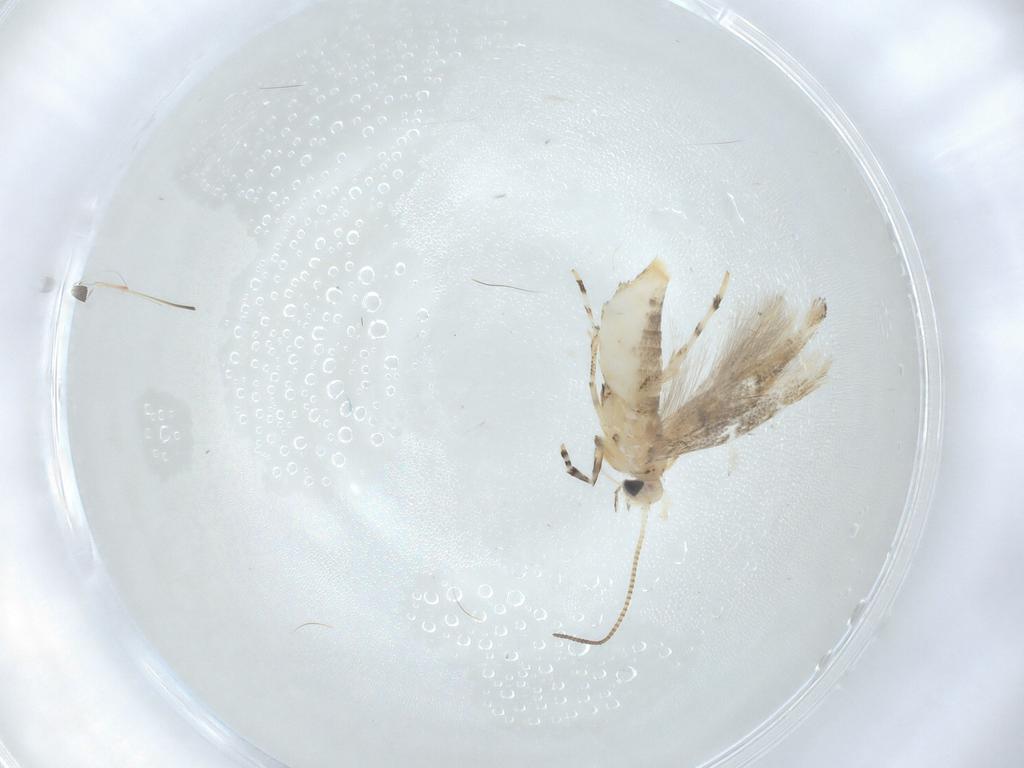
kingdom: Animalia
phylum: Arthropoda
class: Insecta
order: Lepidoptera
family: Gracillariidae
